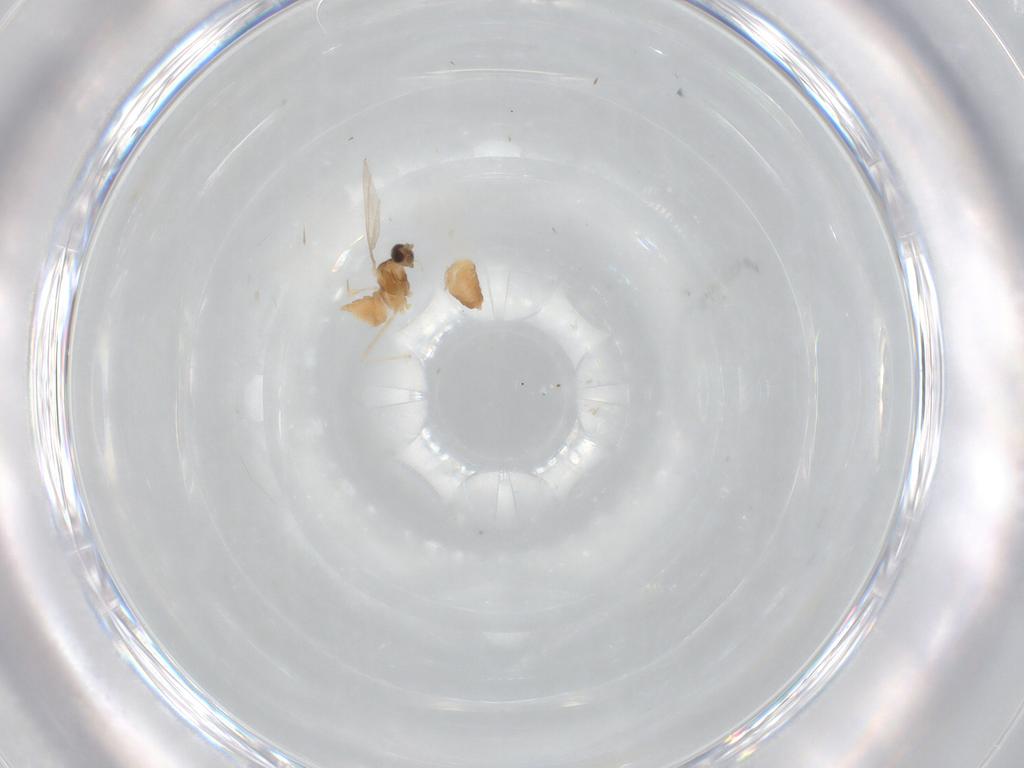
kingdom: Animalia
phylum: Arthropoda
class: Insecta
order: Diptera
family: Cecidomyiidae
